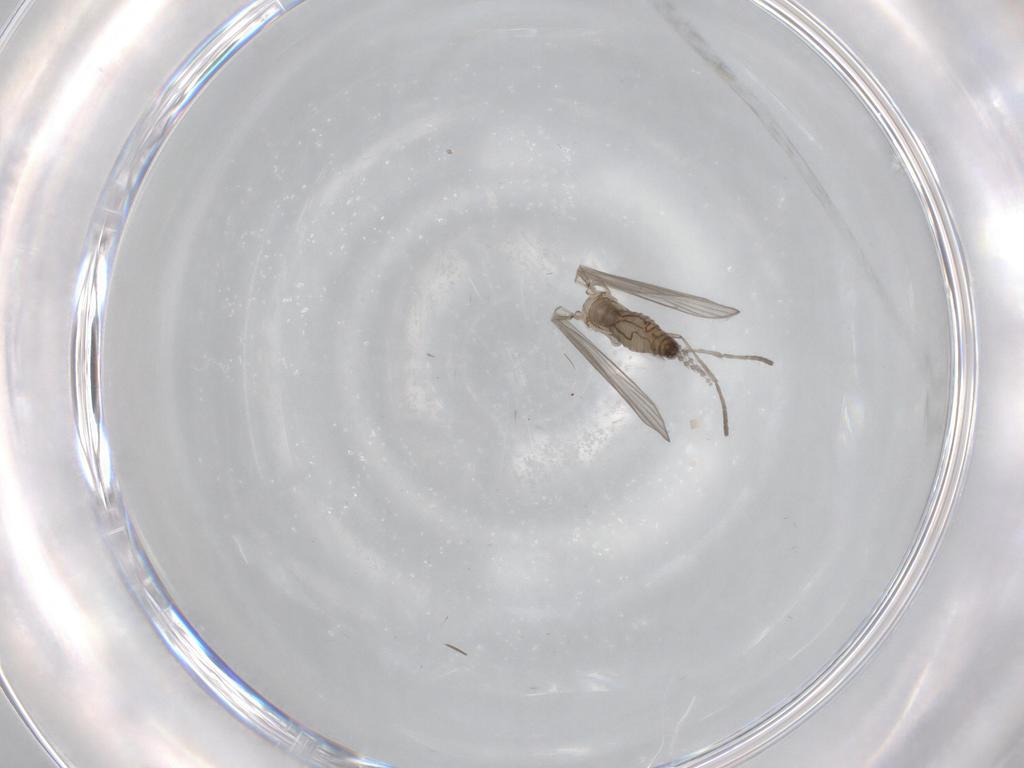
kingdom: Animalia
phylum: Arthropoda
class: Insecta
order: Diptera
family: Psychodidae
